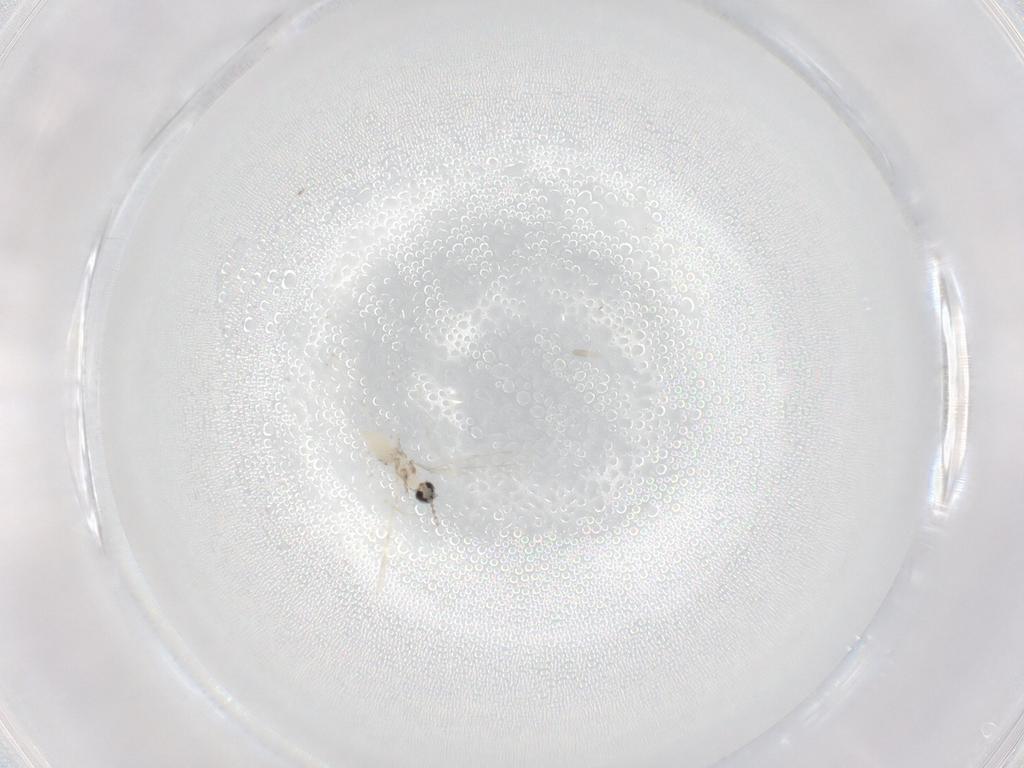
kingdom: Animalia
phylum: Arthropoda
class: Insecta
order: Diptera
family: Cecidomyiidae
